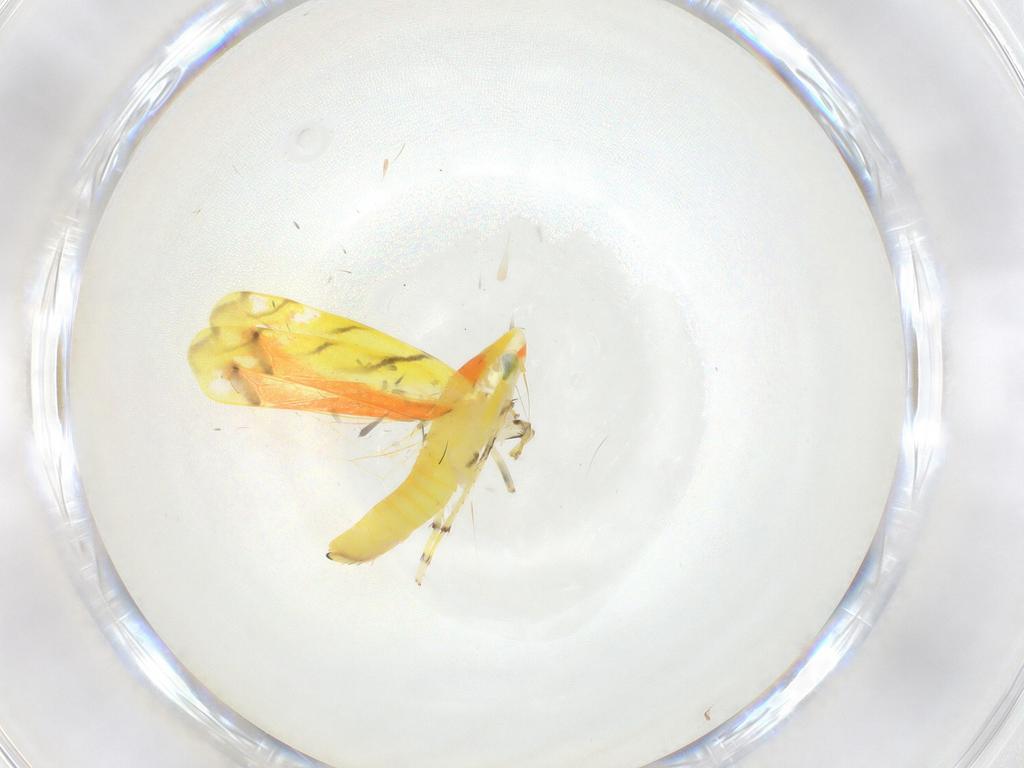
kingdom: Animalia
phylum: Arthropoda
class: Insecta
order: Hemiptera
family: Cicadellidae
